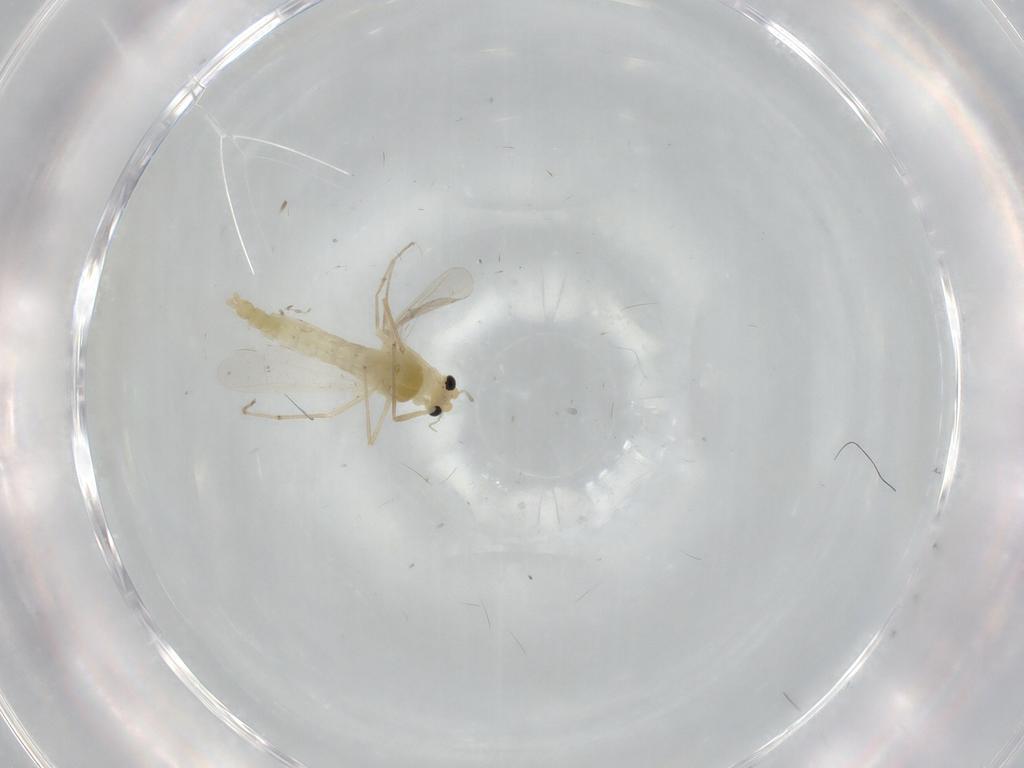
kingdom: Animalia
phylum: Arthropoda
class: Insecta
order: Diptera
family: Chironomidae
